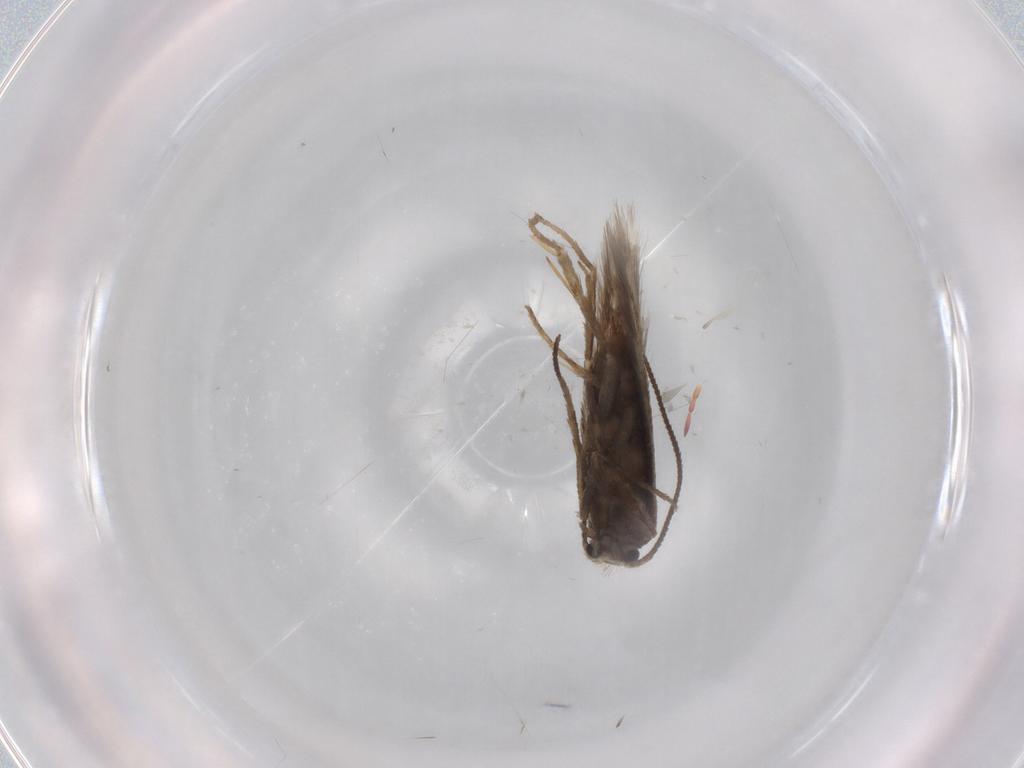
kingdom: Animalia
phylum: Arthropoda
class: Insecta
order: Lepidoptera
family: Nepticulidae
